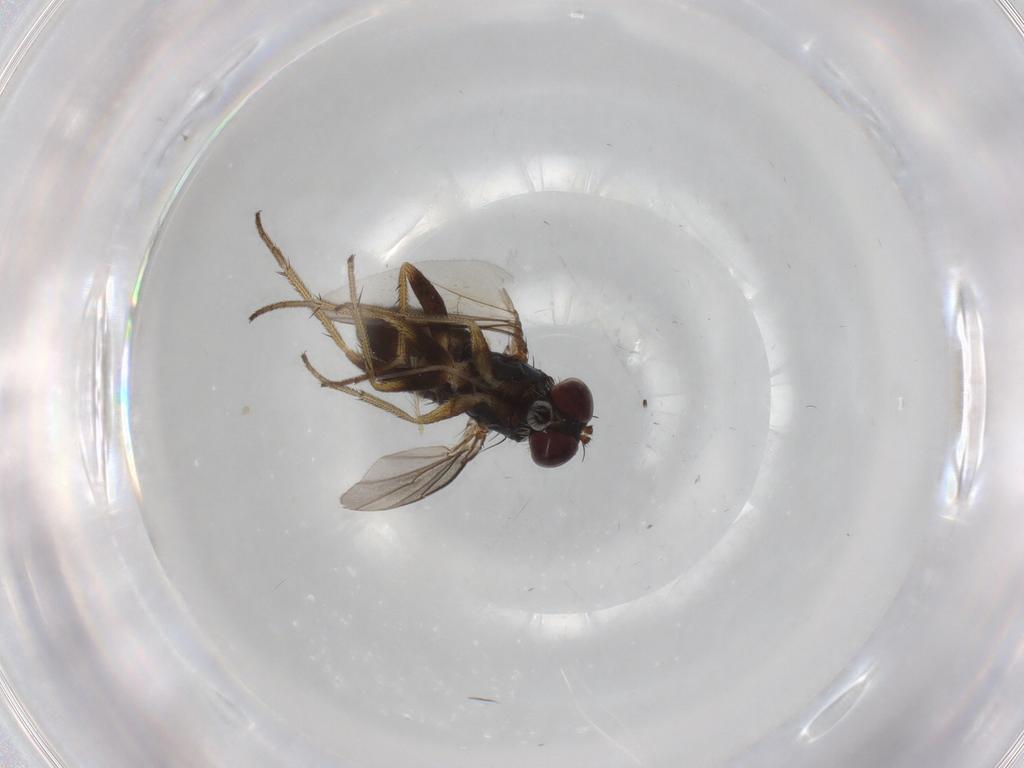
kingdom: Animalia
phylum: Arthropoda
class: Insecta
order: Diptera
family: Psychodidae
